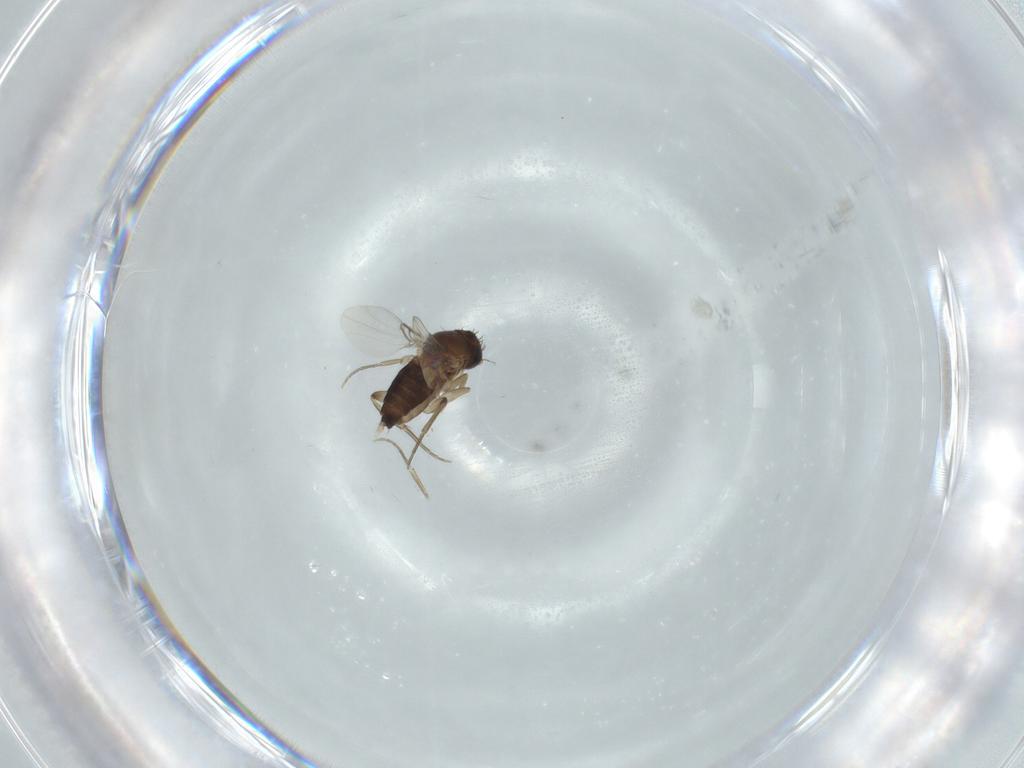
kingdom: Animalia
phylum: Arthropoda
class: Insecta
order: Diptera
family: Phoridae
